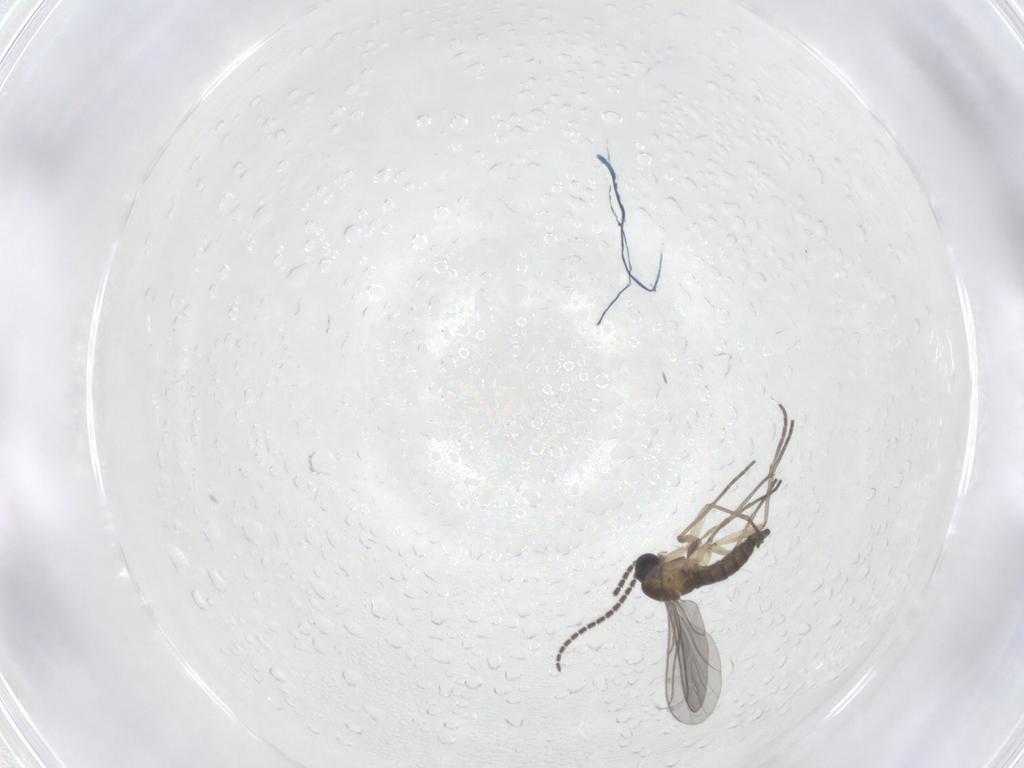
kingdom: Animalia
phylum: Arthropoda
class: Insecta
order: Diptera
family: Sciaridae
